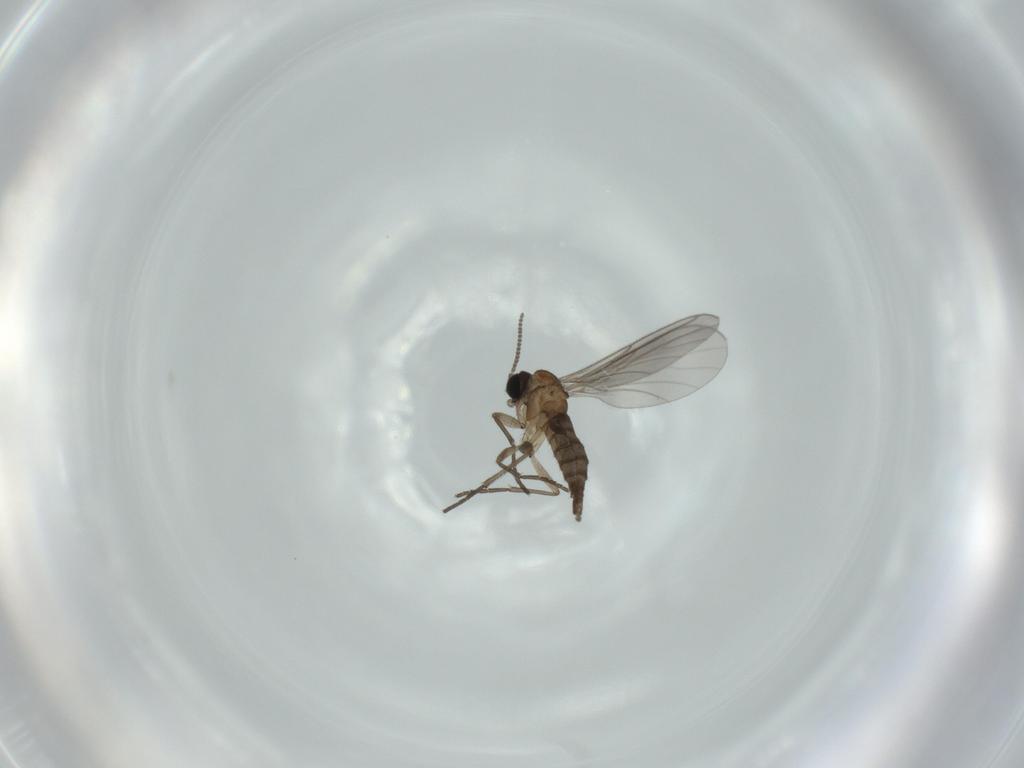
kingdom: Animalia
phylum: Arthropoda
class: Insecta
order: Diptera
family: Sciaridae
